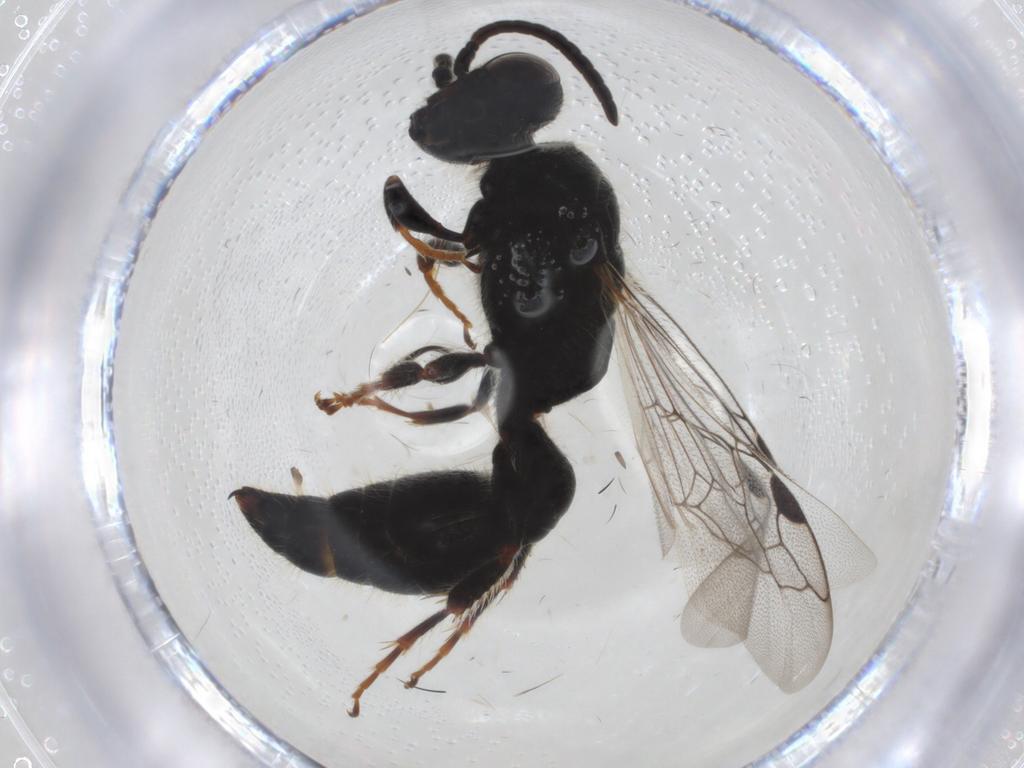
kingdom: Animalia
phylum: Arthropoda
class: Insecta
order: Hymenoptera
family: Tiphiidae
